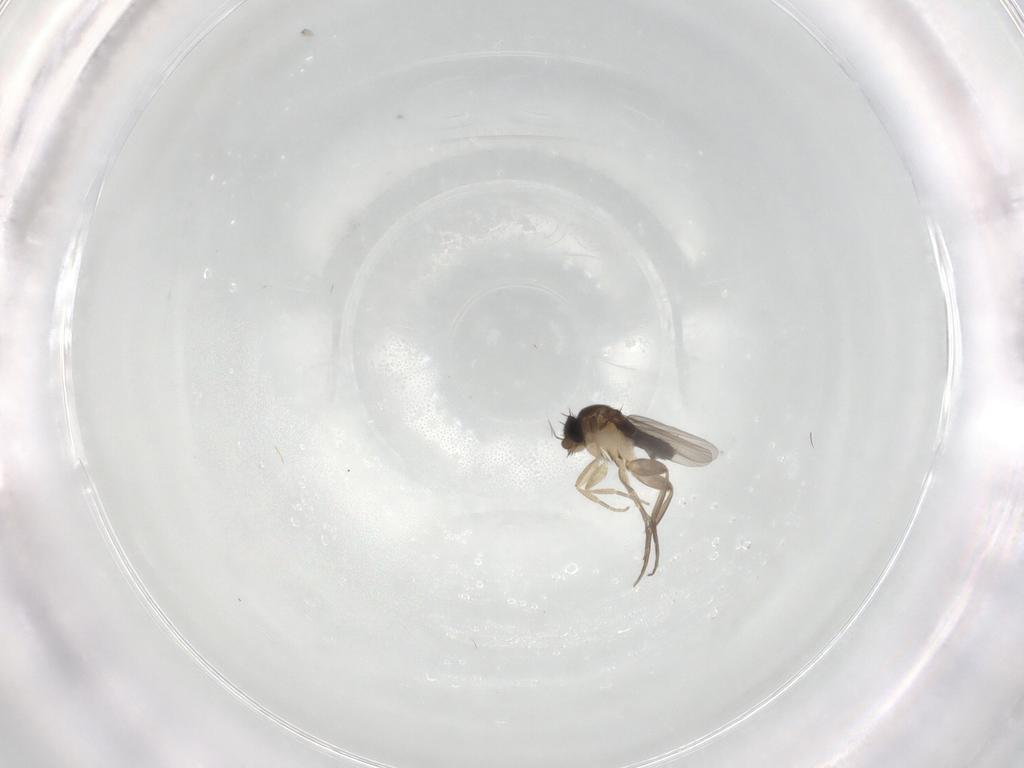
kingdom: Animalia
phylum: Arthropoda
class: Insecta
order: Diptera
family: Phoridae
